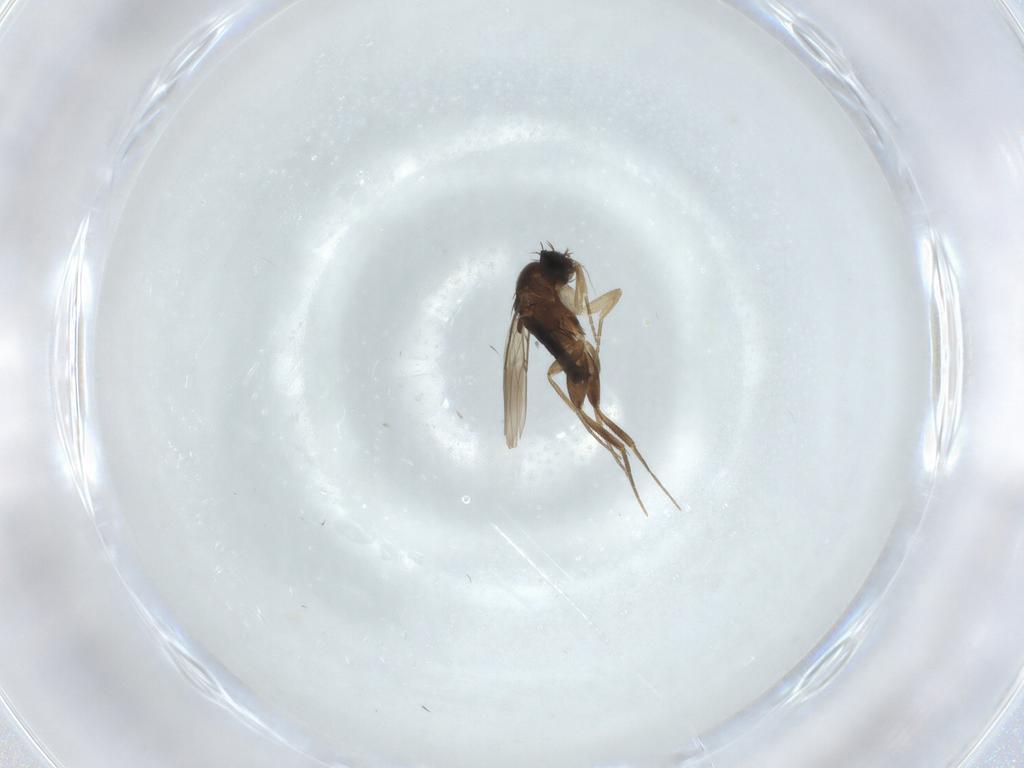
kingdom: Animalia
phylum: Arthropoda
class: Insecta
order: Diptera
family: Phoridae
